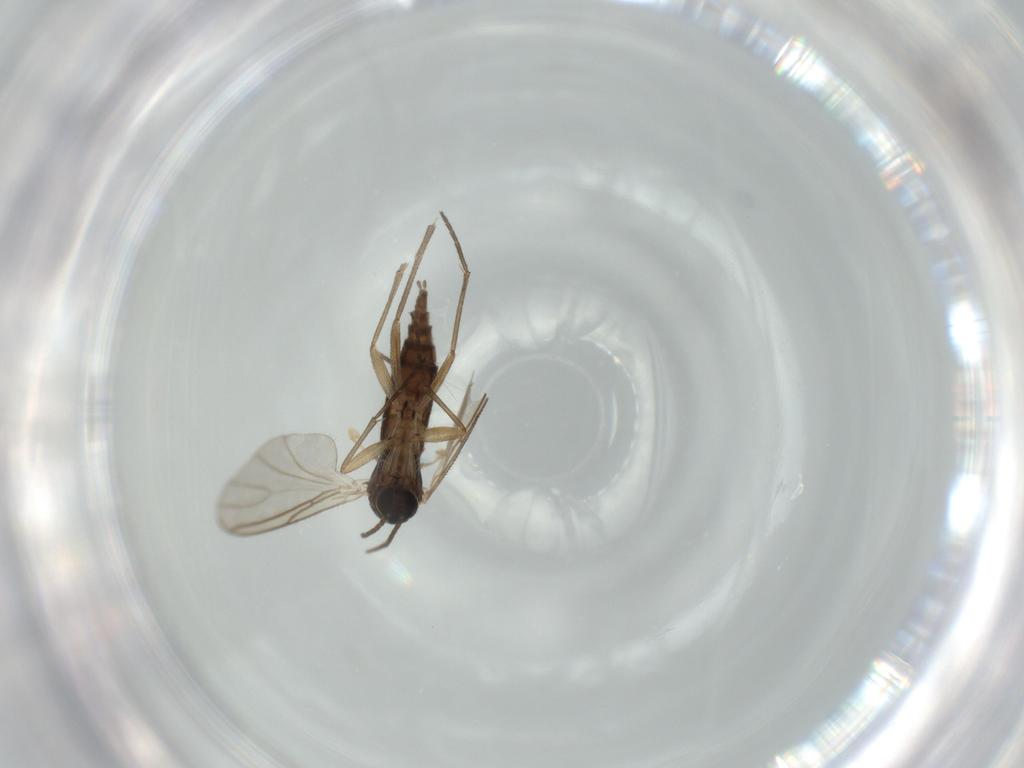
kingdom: Animalia
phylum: Arthropoda
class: Insecta
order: Diptera
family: Sciaridae
